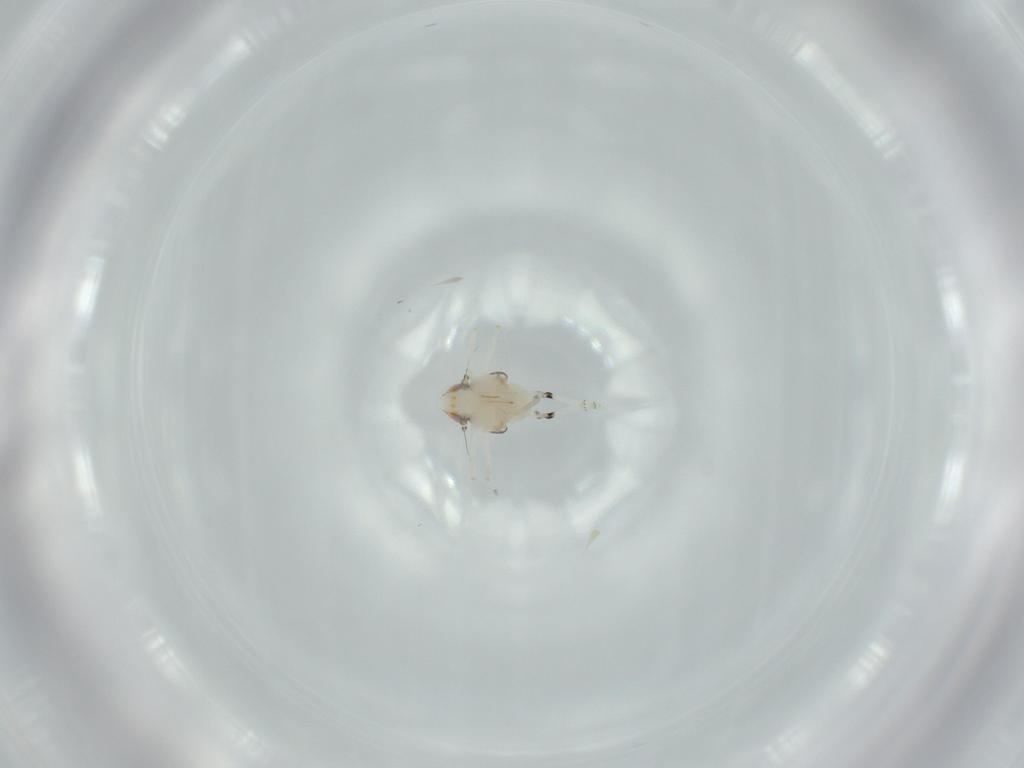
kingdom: Animalia
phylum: Arthropoda
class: Insecta
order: Hemiptera
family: Nogodinidae
